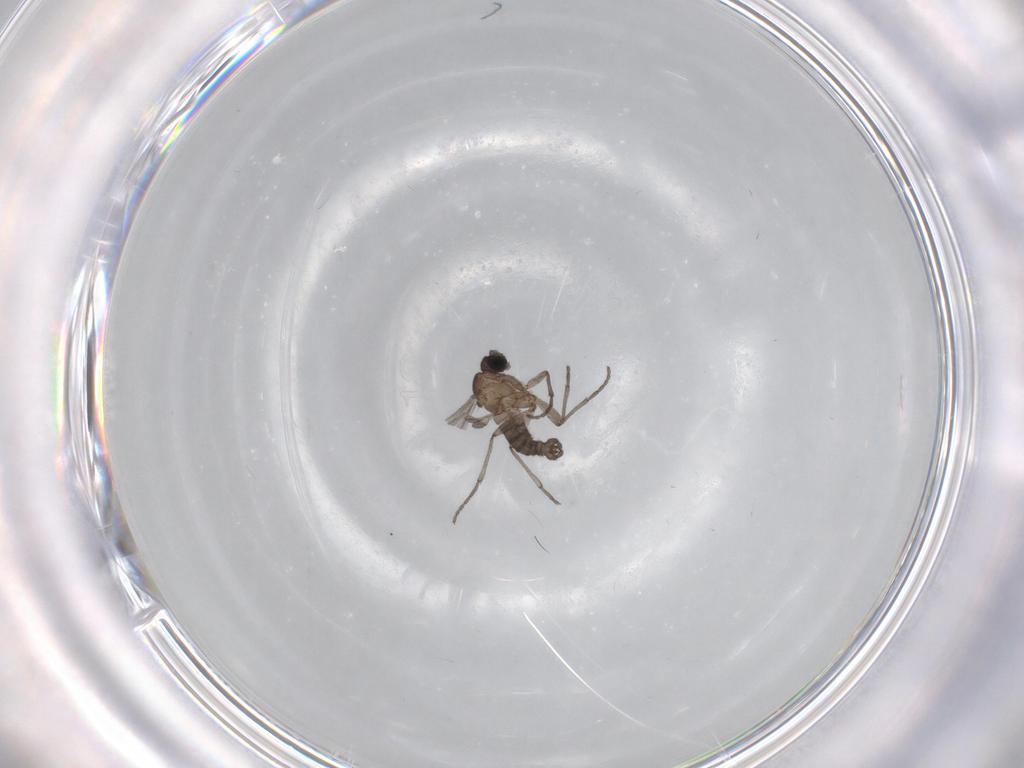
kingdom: Animalia
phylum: Arthropoda
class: Insecta
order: Diptera
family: Sciaridae
